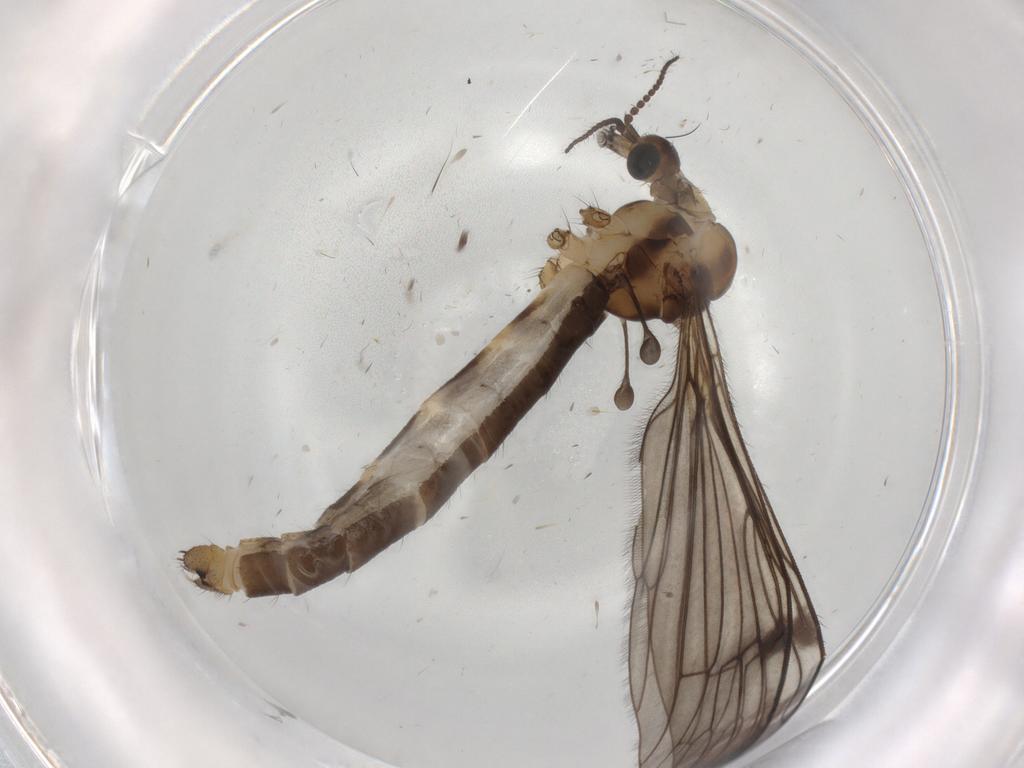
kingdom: Animalia
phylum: Arthropoda
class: Insecta
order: Diptera
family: Limoniidae
